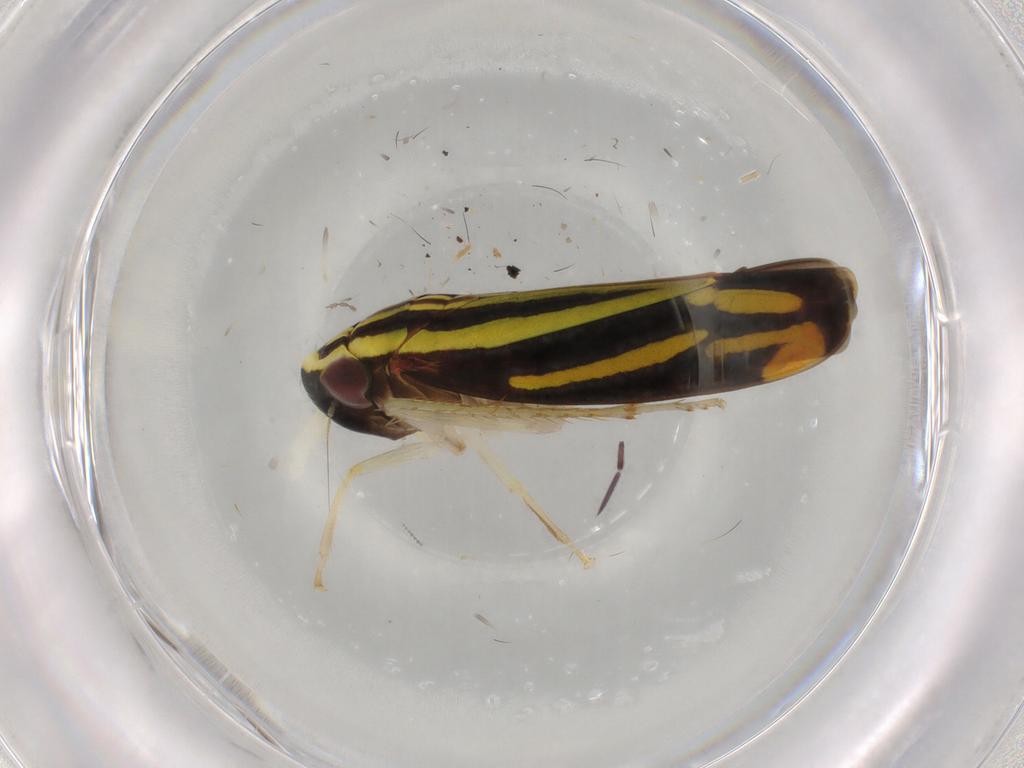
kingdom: Animalia
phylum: Arthropoda
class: Insecta
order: Hemiptera
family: Cicadellidae
